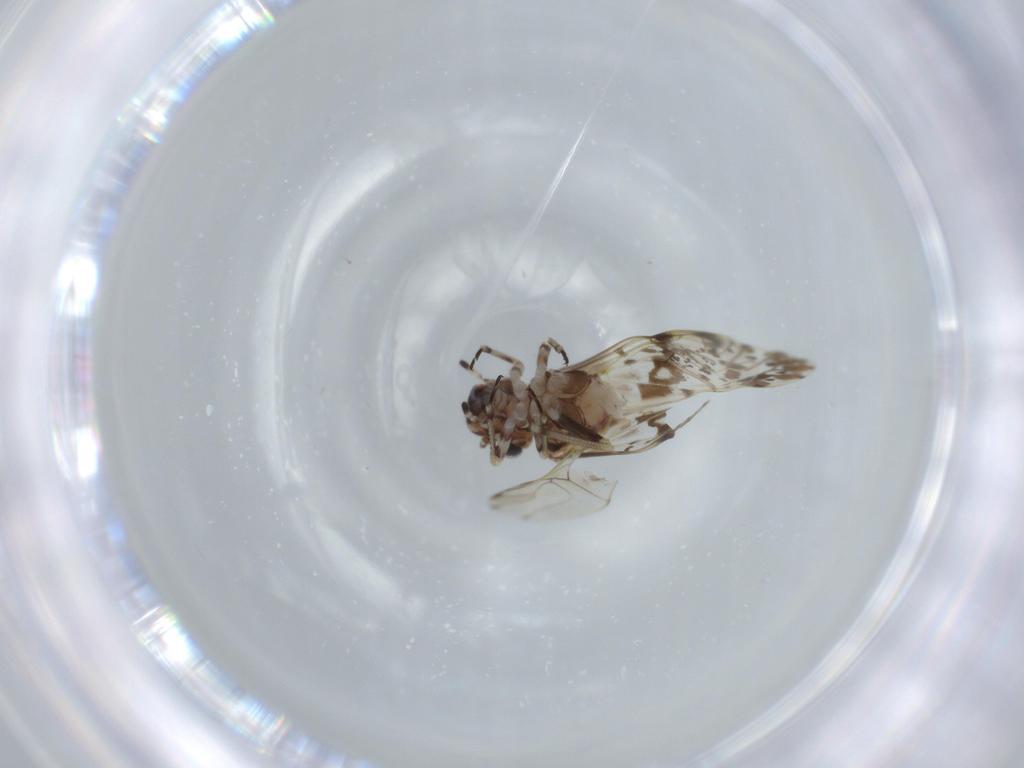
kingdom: Animalia
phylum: Arthropoda
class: Insecta
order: Psocodea
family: Psocidae
